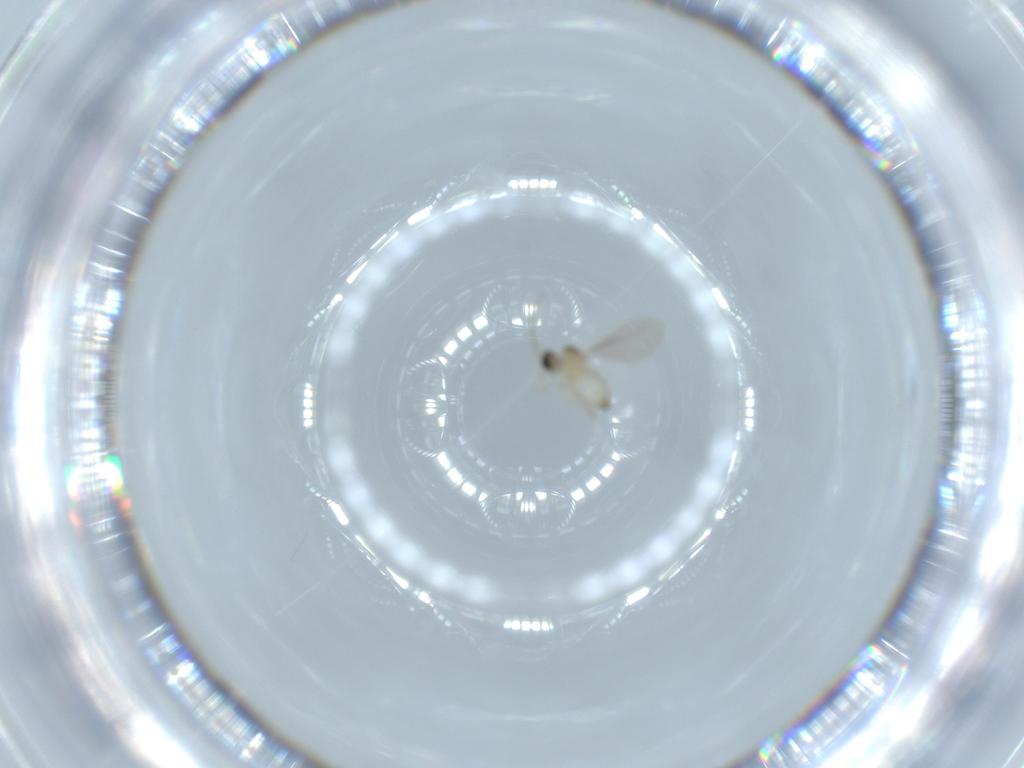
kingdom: Animalia
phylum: Arthropoda
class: Insecta
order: Diptera
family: Cecidomyiidae
